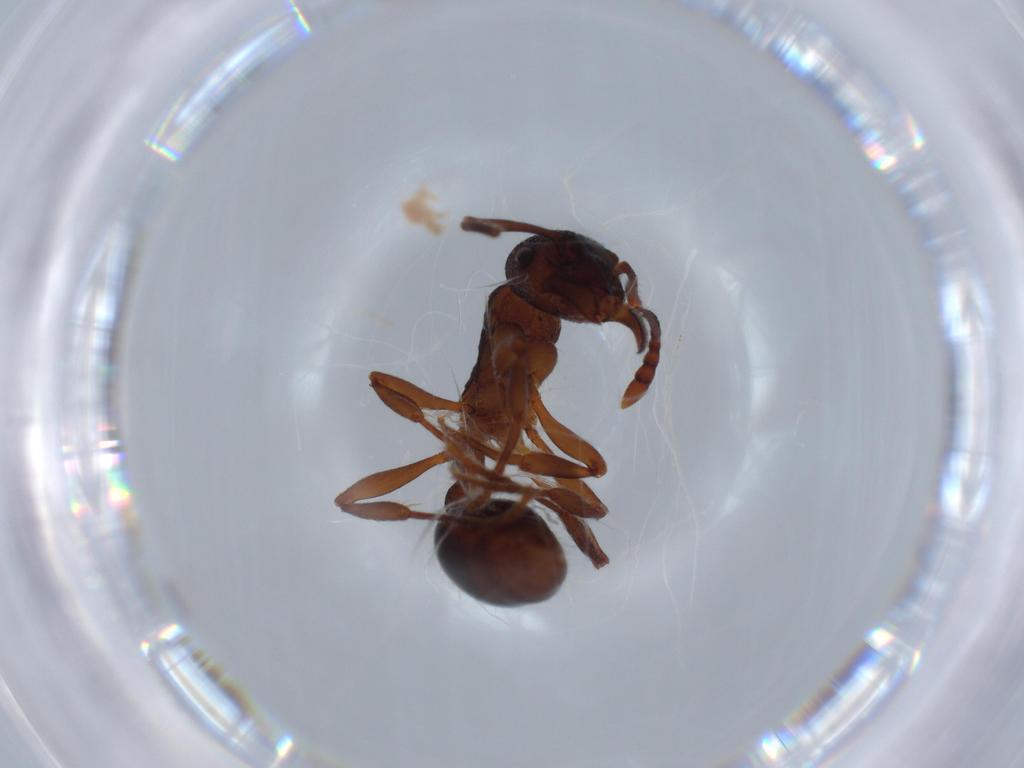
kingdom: Animalia
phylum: Arthropoda
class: Insecta
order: Hymenoptera
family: Formicidae
